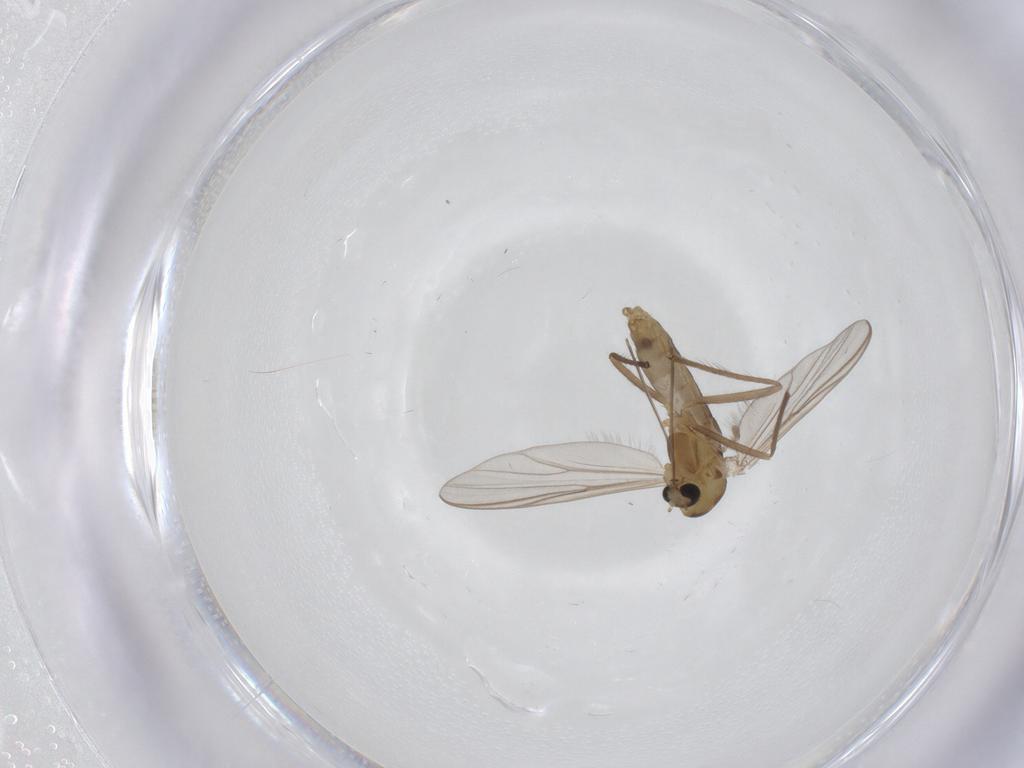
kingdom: Animalia
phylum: Arthropoda
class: Insecta
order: Diptera
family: Chironomidae
